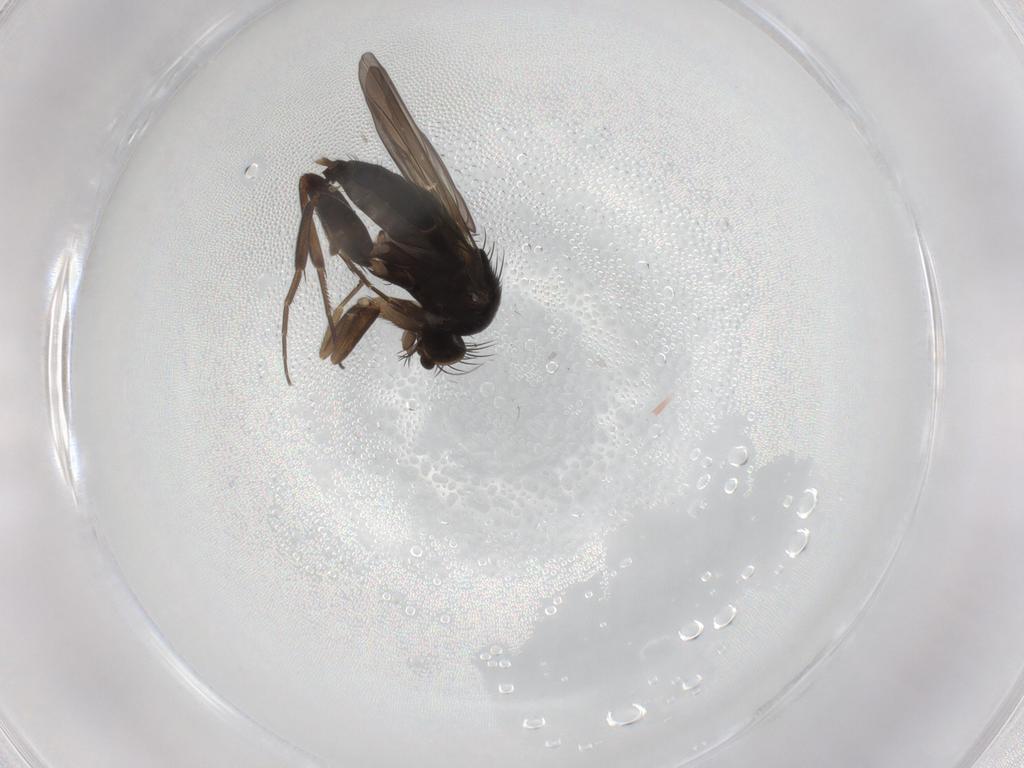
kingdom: Animalia
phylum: Arthropoda
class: Insecta
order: Diptera
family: Phoridae
